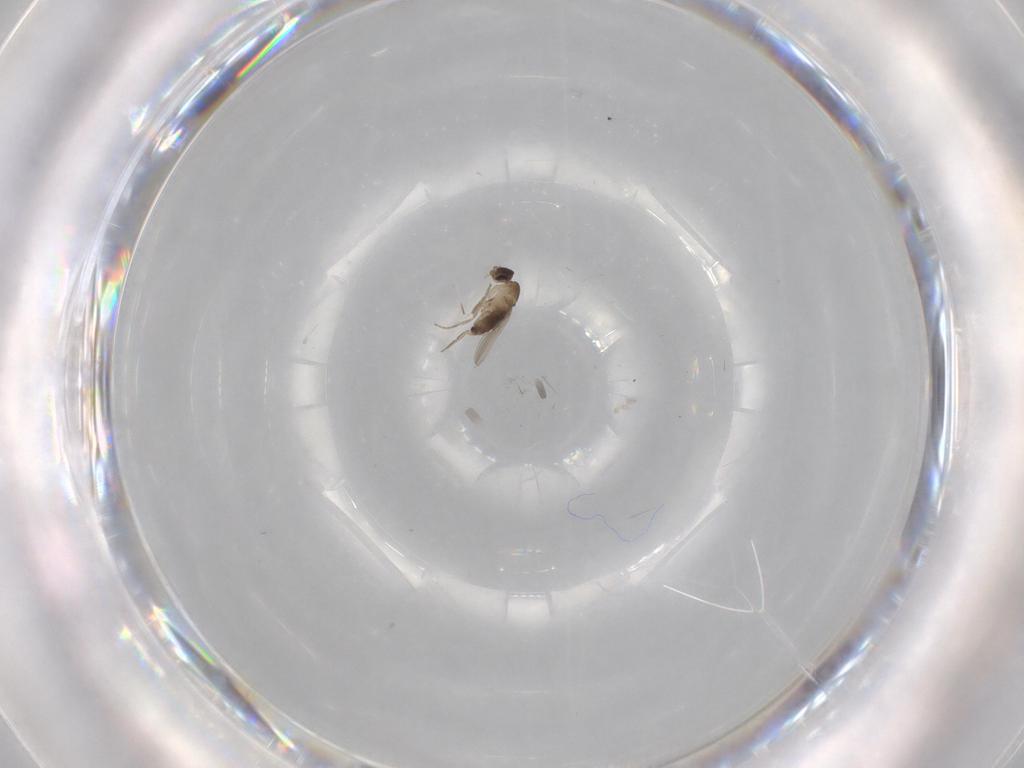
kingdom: Animalia
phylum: Arthropoda
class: Insecta
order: Diptera
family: Phoridae
